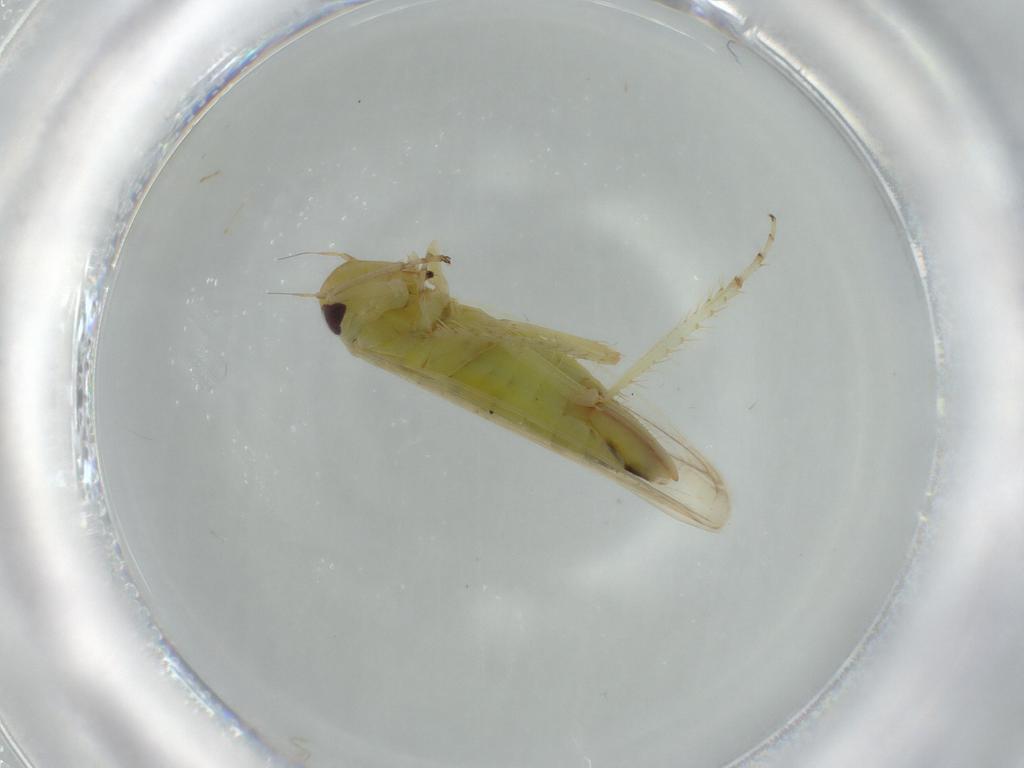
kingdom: Animalia
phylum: Arthropoda
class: Insecta
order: Hemiptera
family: Cicadellidae
